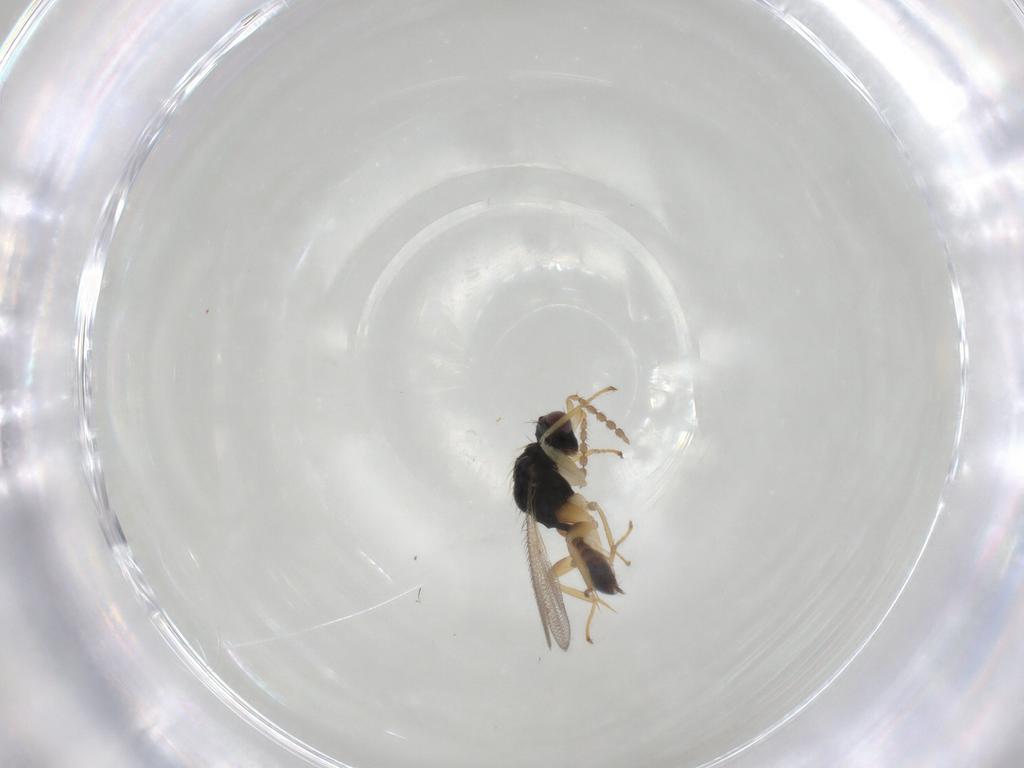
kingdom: Animalia
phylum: Arthropoda
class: Insecta
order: Hymenoptera
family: Eulophidae
